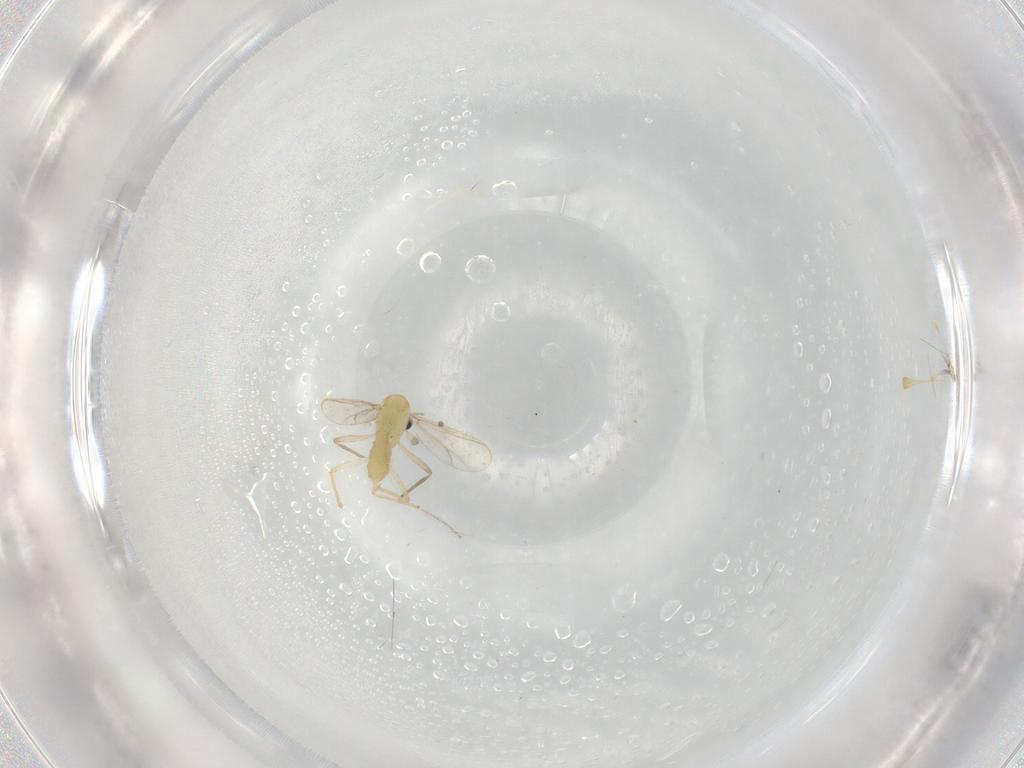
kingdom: Animalia
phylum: Arthropoda
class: Insecta
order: Diptera
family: Chironomidae
